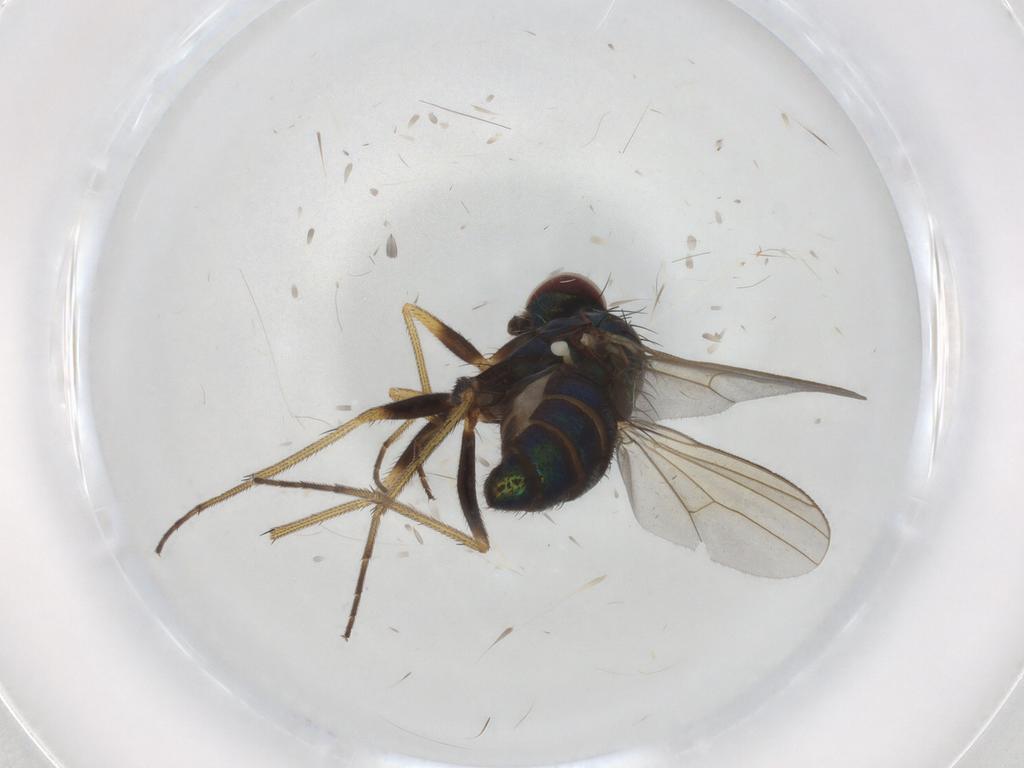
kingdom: Animalia
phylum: Arthropoda
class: Insecta
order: Diptera
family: Dolichopodidae
